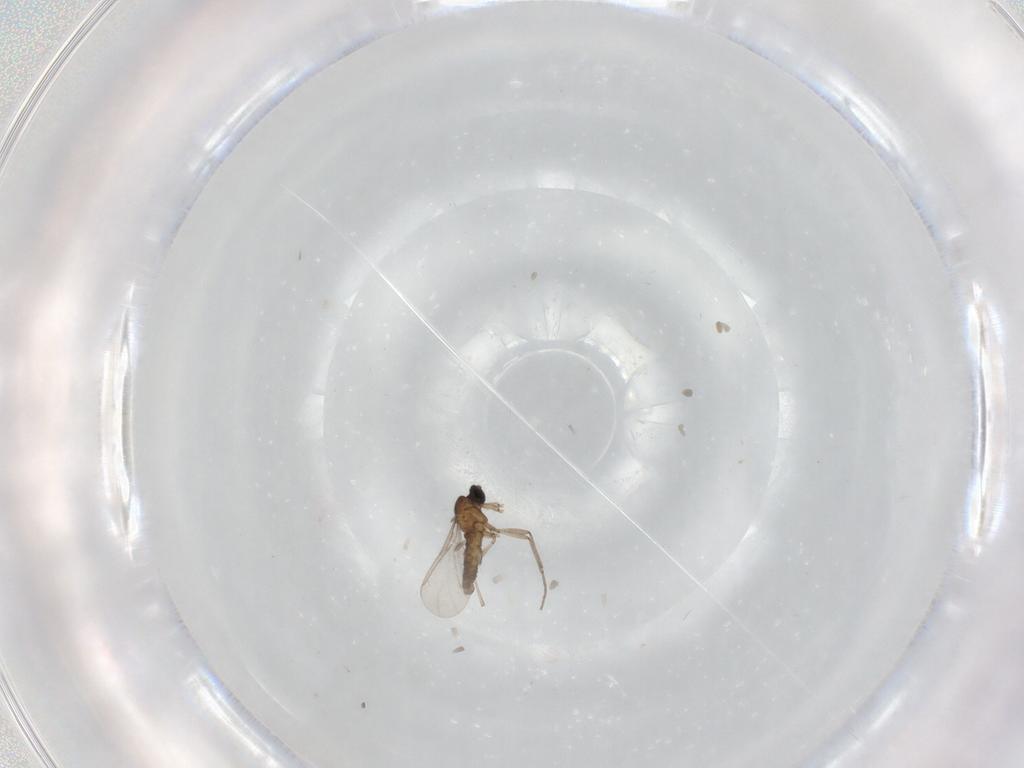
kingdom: Animalia
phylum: Arthropoda
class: Insecta
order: Diptera
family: Sciaridae
